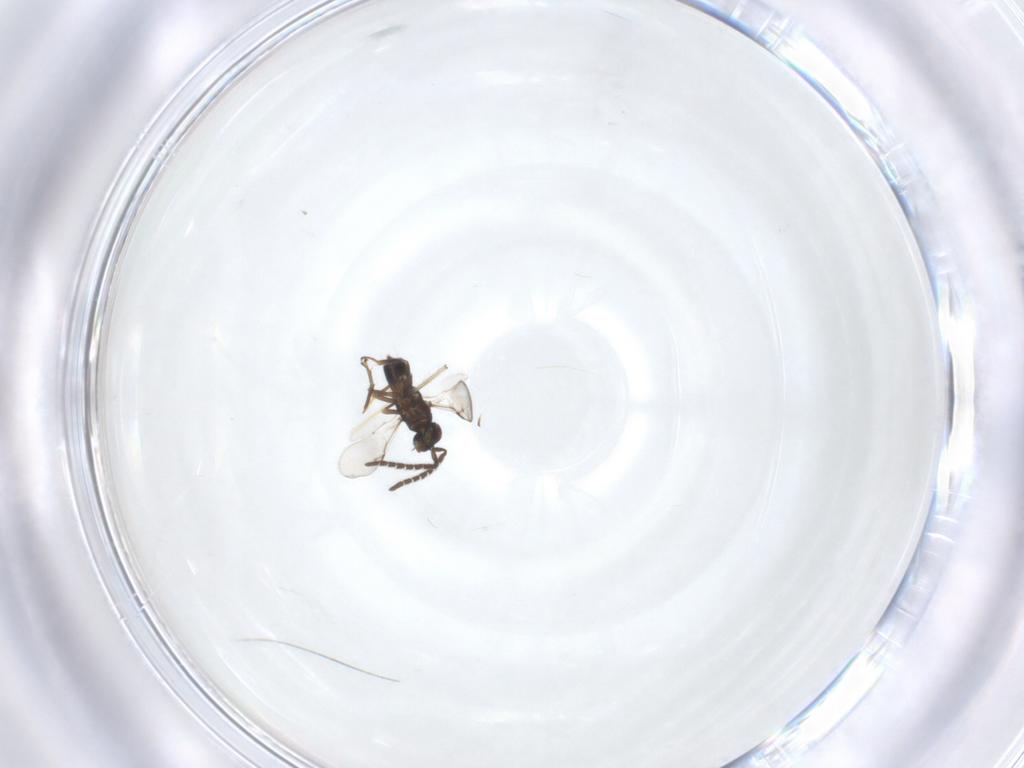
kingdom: Animalia
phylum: Arthropoda
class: Insecta
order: Hymenoptera
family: Encyrtidae
